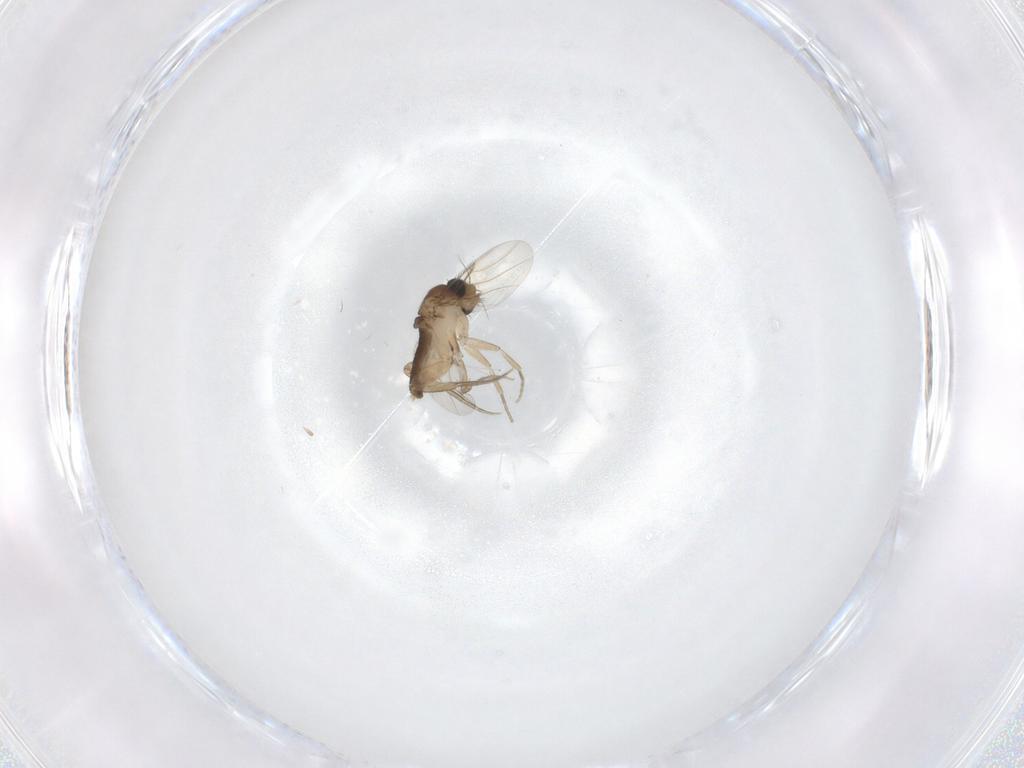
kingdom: Animalia
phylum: Arthropoda
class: Insecta
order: Diptera
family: Phoridae
